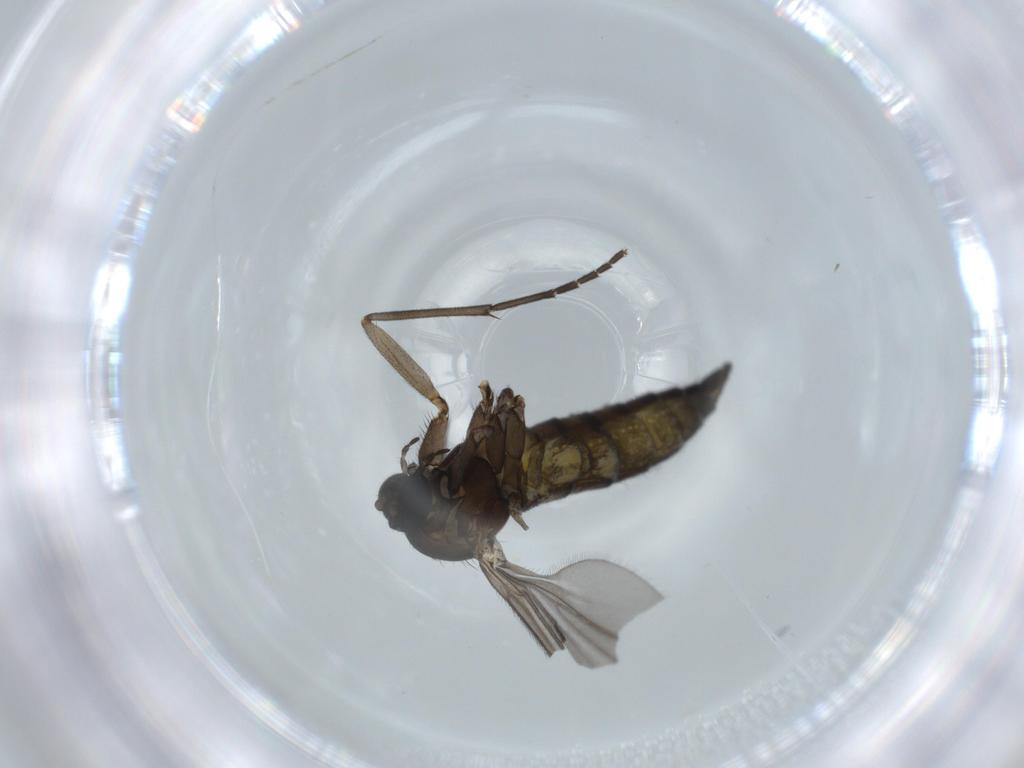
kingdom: Animalia
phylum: Arthropoda
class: Insecta
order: Diptera
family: Sciaridae
